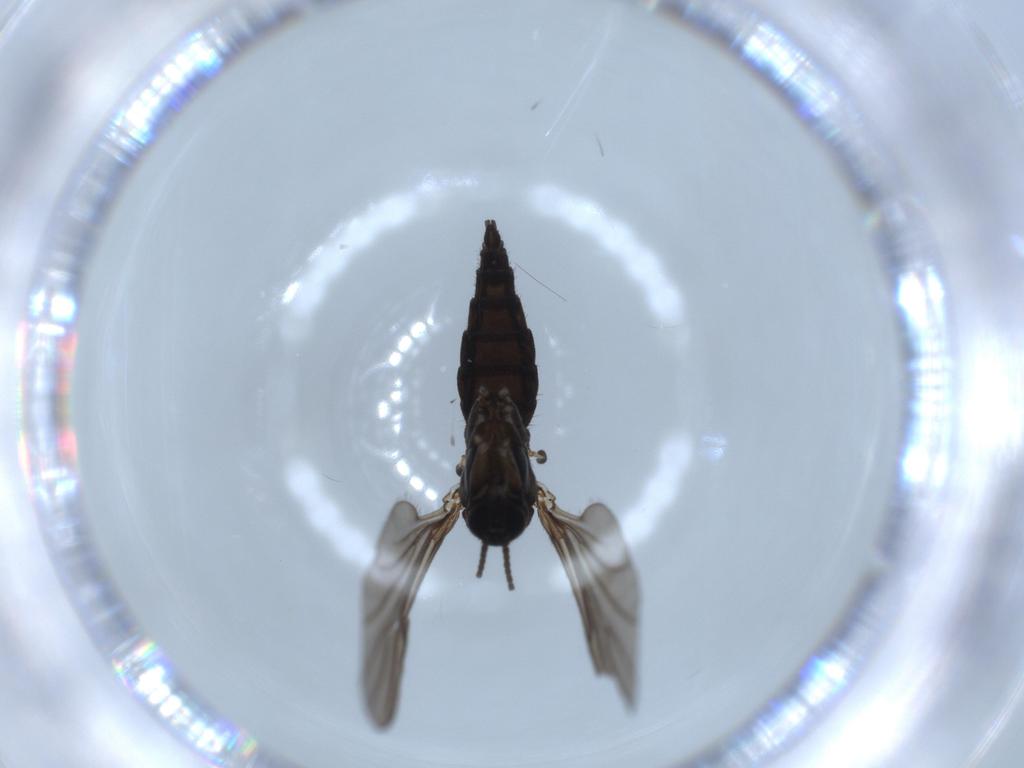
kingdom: Animalia
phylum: Arthropoda
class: Insecta
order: Diptera
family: Sciaridae
